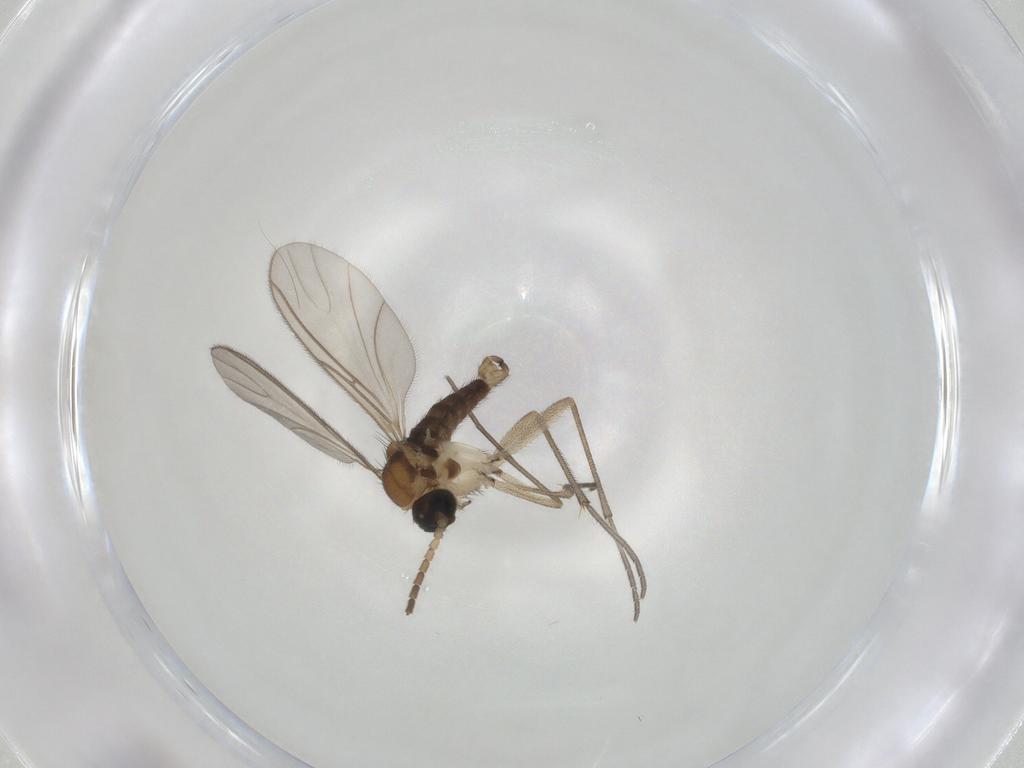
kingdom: Animalia
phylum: Arthropoda
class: Insecta
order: Diptera
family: Sciaridae
